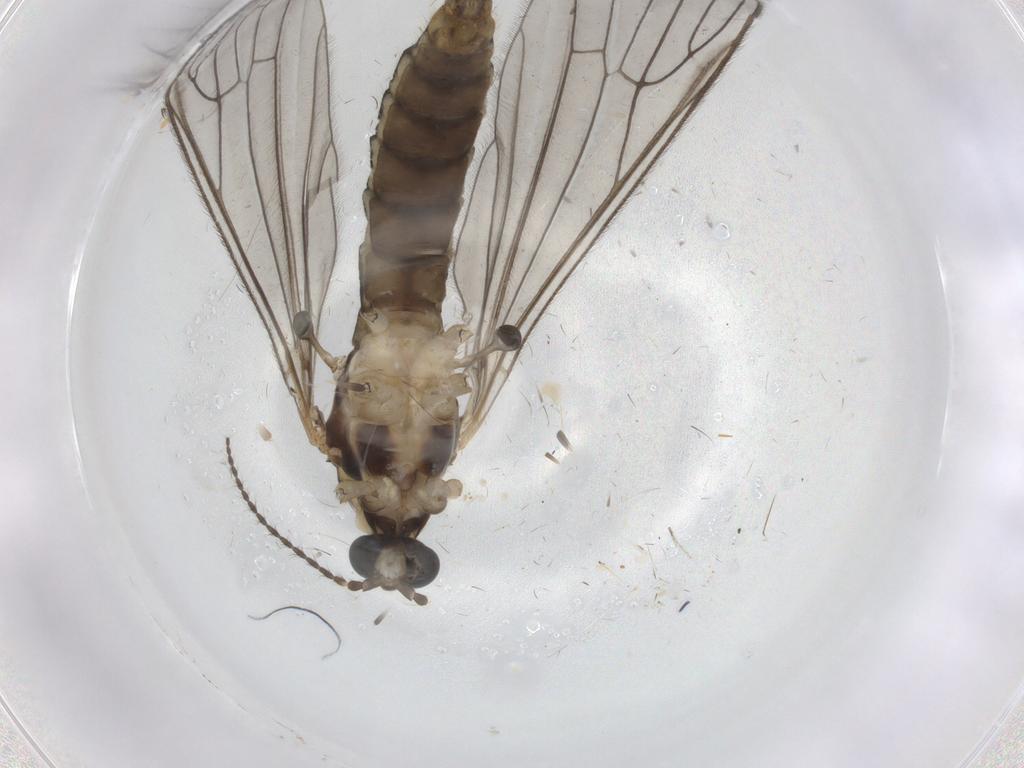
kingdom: Animalia
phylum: Arthropoda
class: Insecta
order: Diptera
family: Limoniidae
